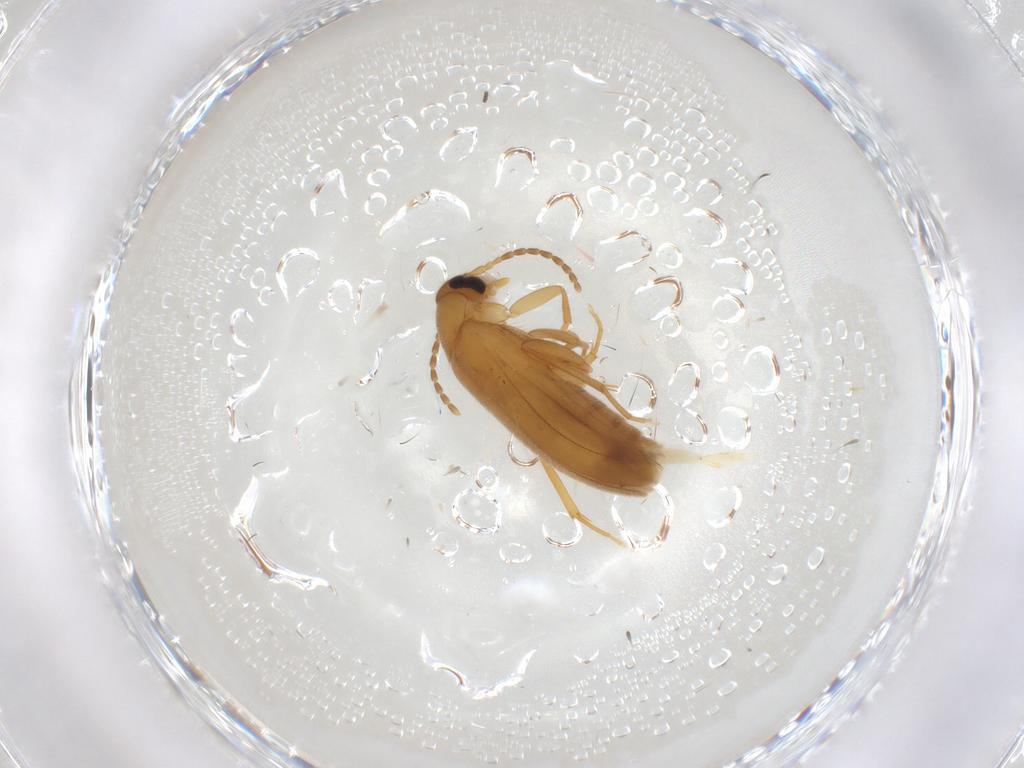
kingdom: Animalia
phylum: Arthropoda
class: Insecta
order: Coleoptera
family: Scraptiidae
